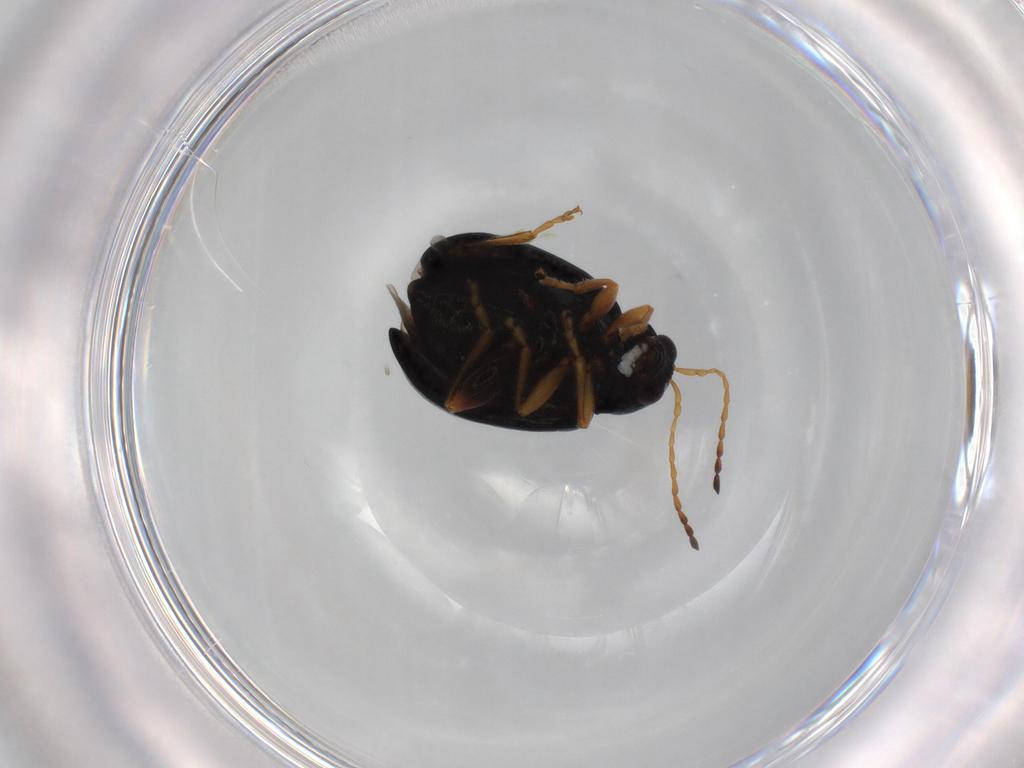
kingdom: Animalia
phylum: Arthropoda
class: Insecta
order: Coleoptera
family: Chrysomelidae
